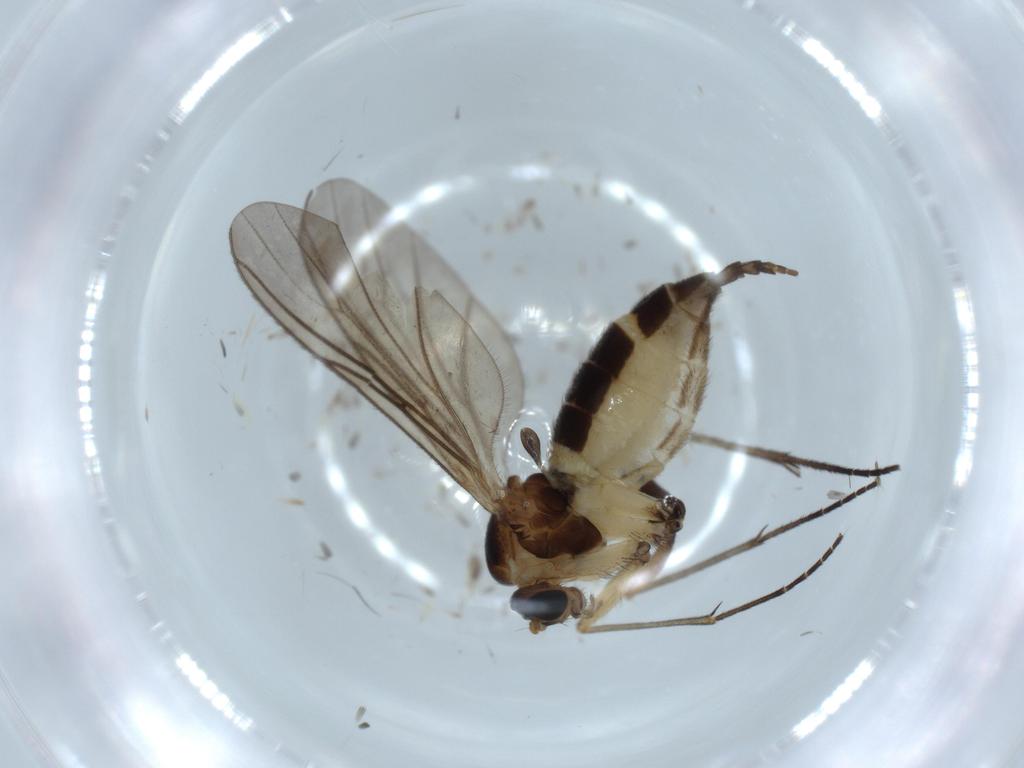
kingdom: Animalia
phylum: Arthropoda
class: Insecta
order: Diptera
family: Sciaridae
